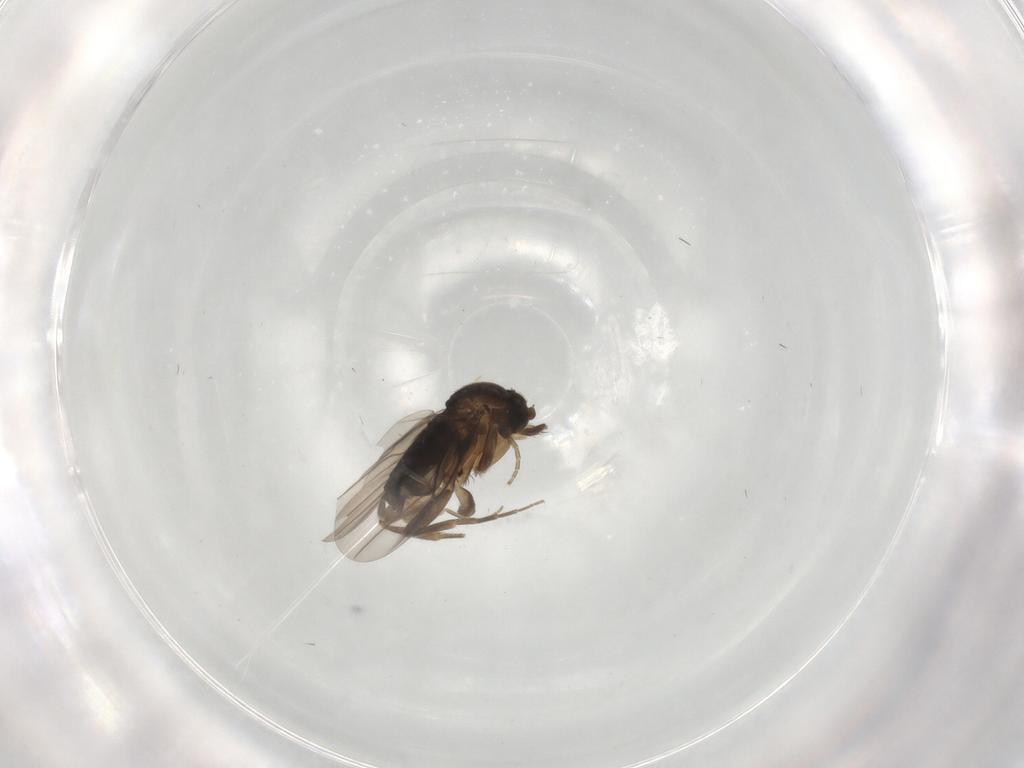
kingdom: Animalia
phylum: Arthropoda
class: Insecta
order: Diptera
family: Phoridae
